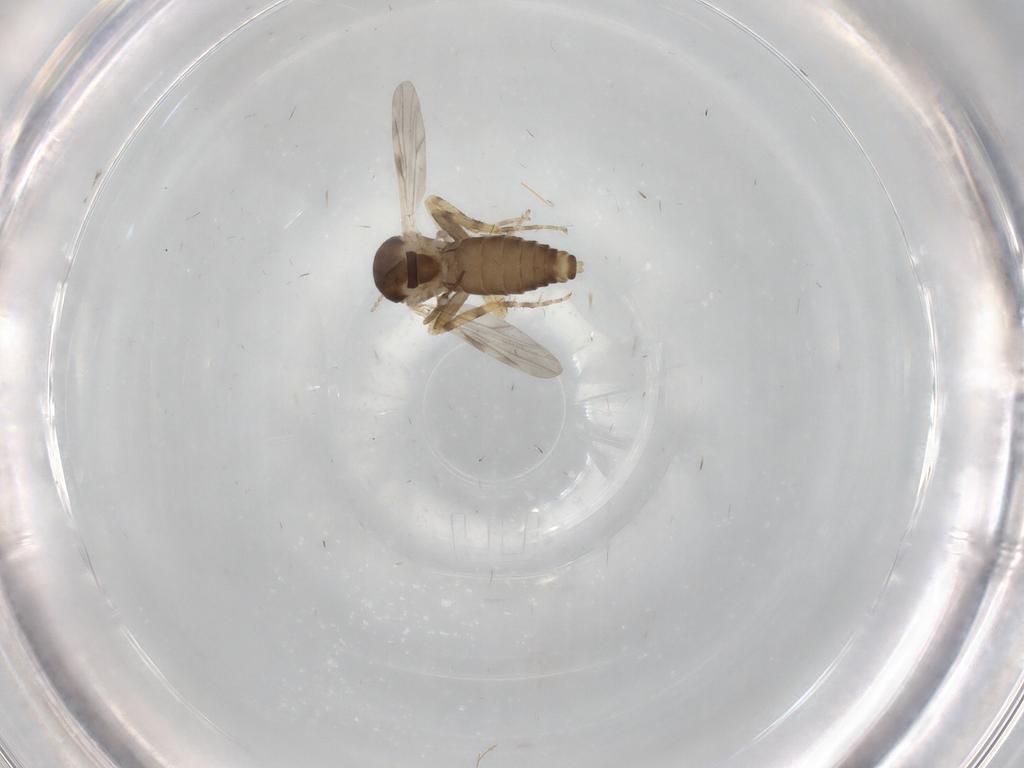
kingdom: Animalia
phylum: Arthropoda
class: Insecta
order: Diptera
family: Ceratopogonidae
